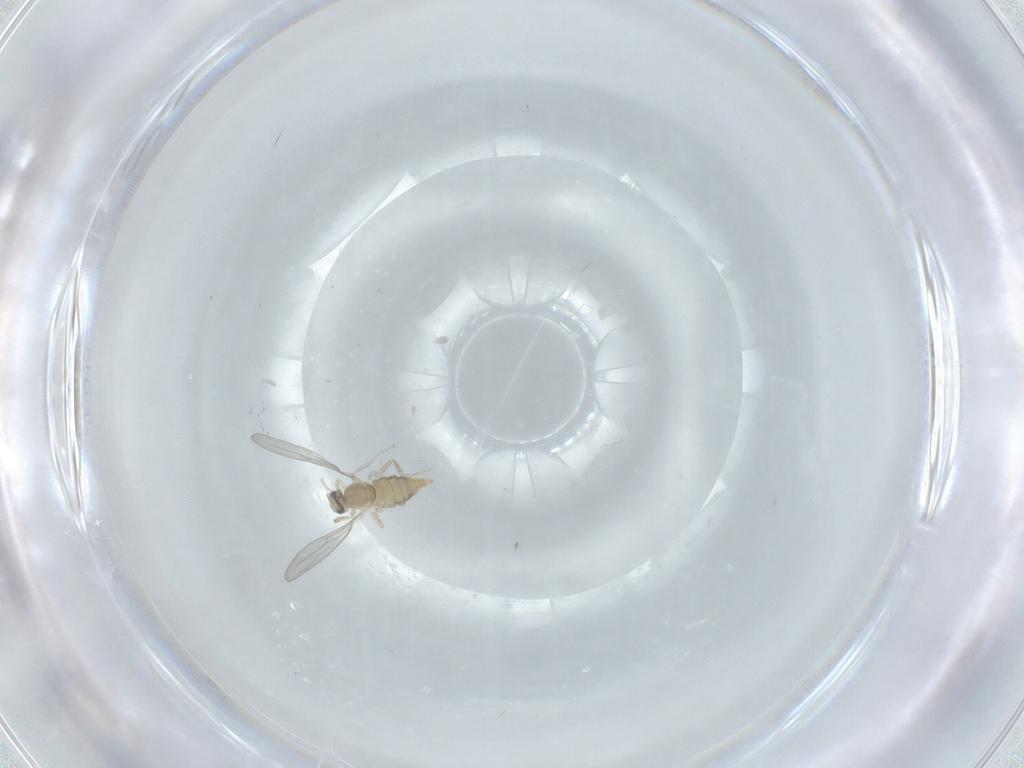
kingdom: Animalia
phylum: Arthropoda
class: Insecta
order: Diptera
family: Cecidomyiidae
